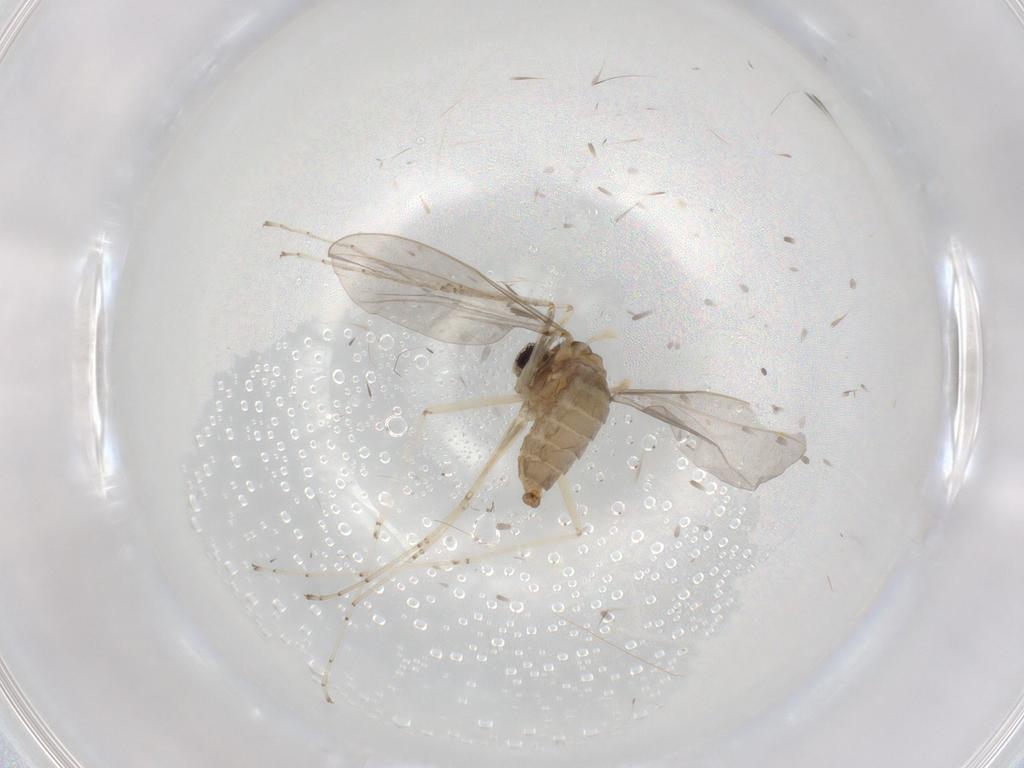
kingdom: Animalia
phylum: Arthropoda
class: Insecta
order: Diptera
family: Cecidomyiidae
